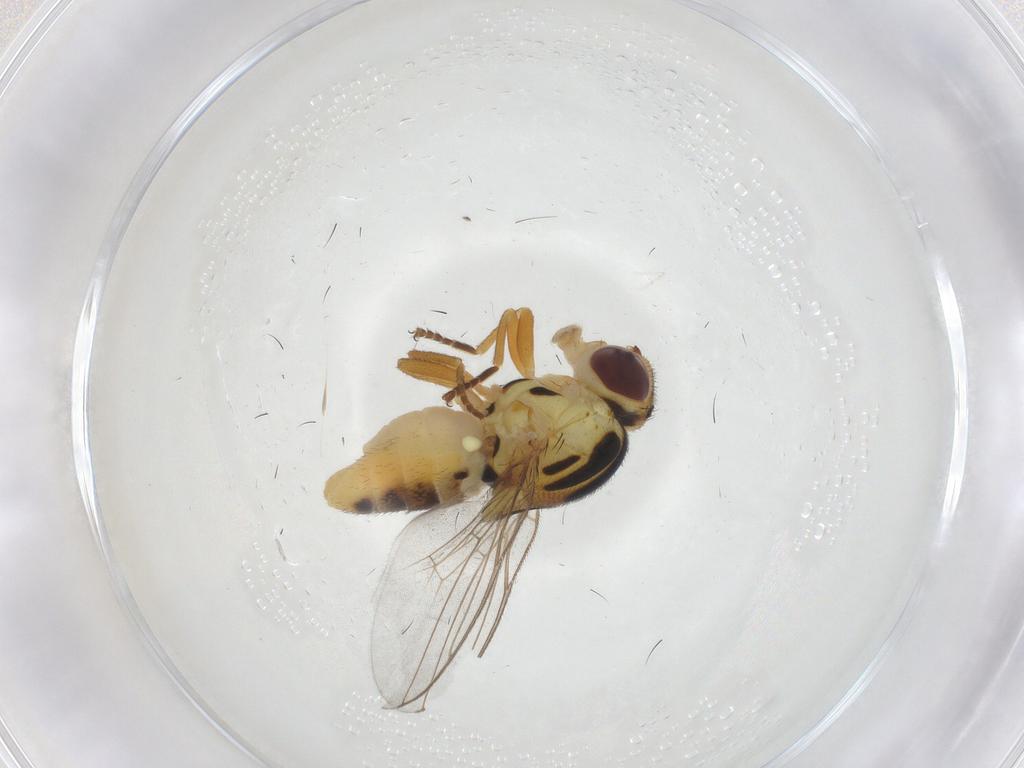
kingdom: Animalia
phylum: Arthropoda
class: Insecta
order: Diptera
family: Chloropidae
